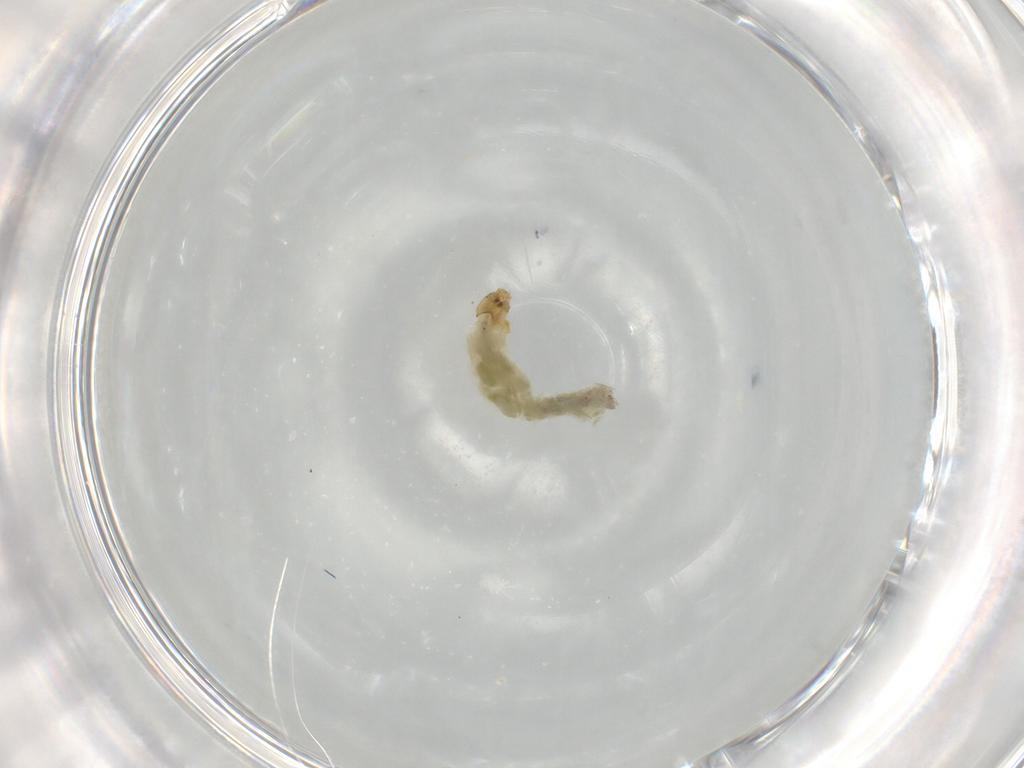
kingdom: Animalia
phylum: Arthropoda
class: Insecta
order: Diptera
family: Chironomidae
